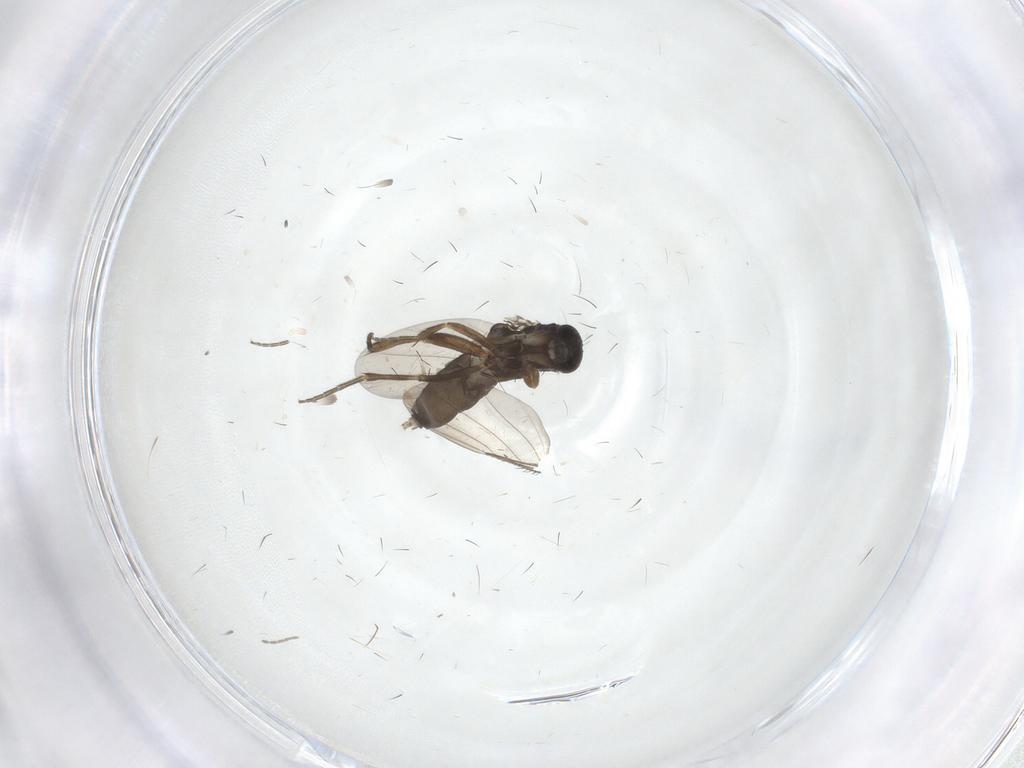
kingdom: Animalia
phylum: Arthropoda
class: Insecta
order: Diptera
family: Phoridae
